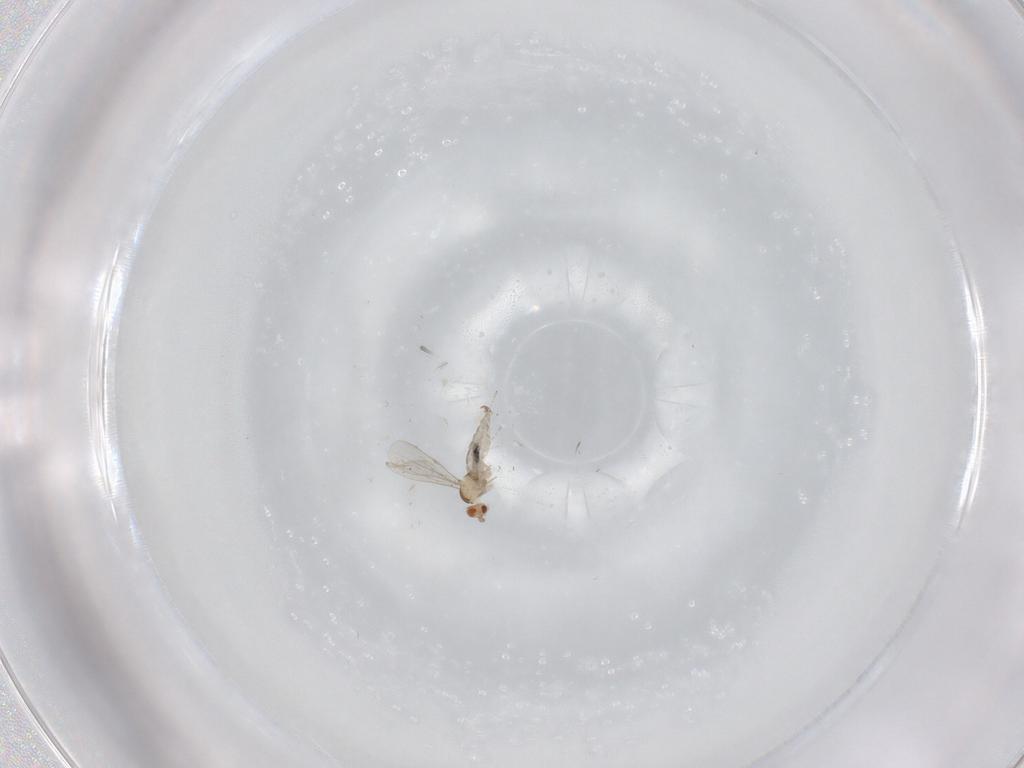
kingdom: Animalia
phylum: Arthropoda
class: Insecta
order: Diptera
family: Cecidomyiidae
